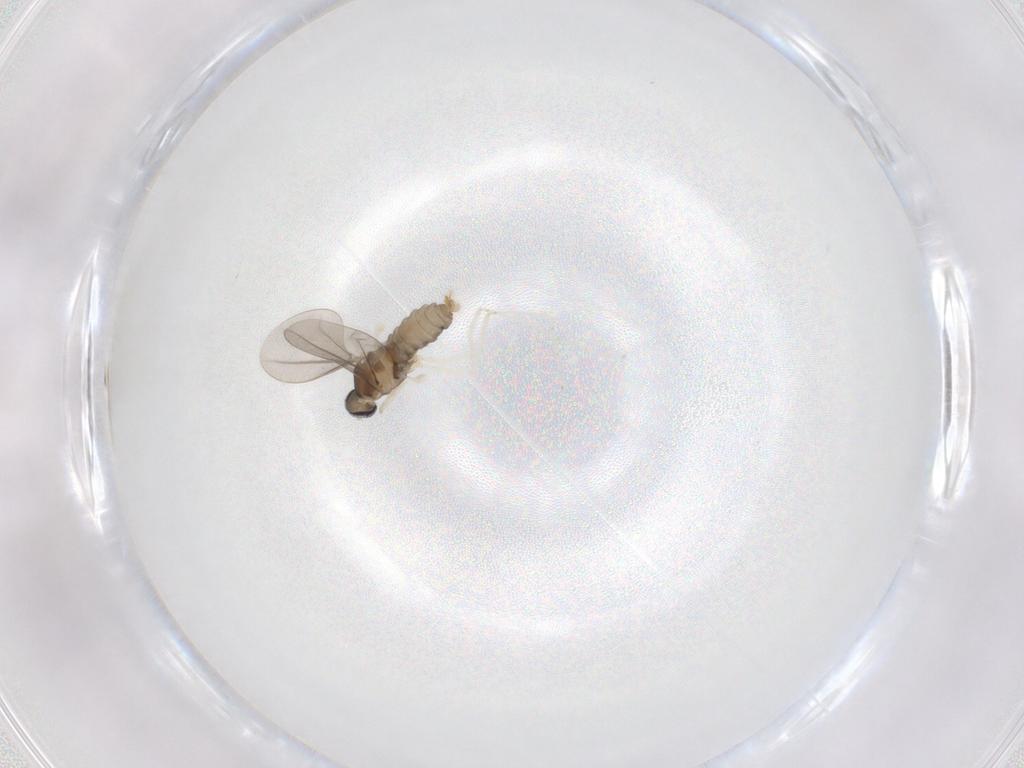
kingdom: Animalia
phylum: Arthropoda
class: Insecta
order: Diptera
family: Cecidomyiidae
